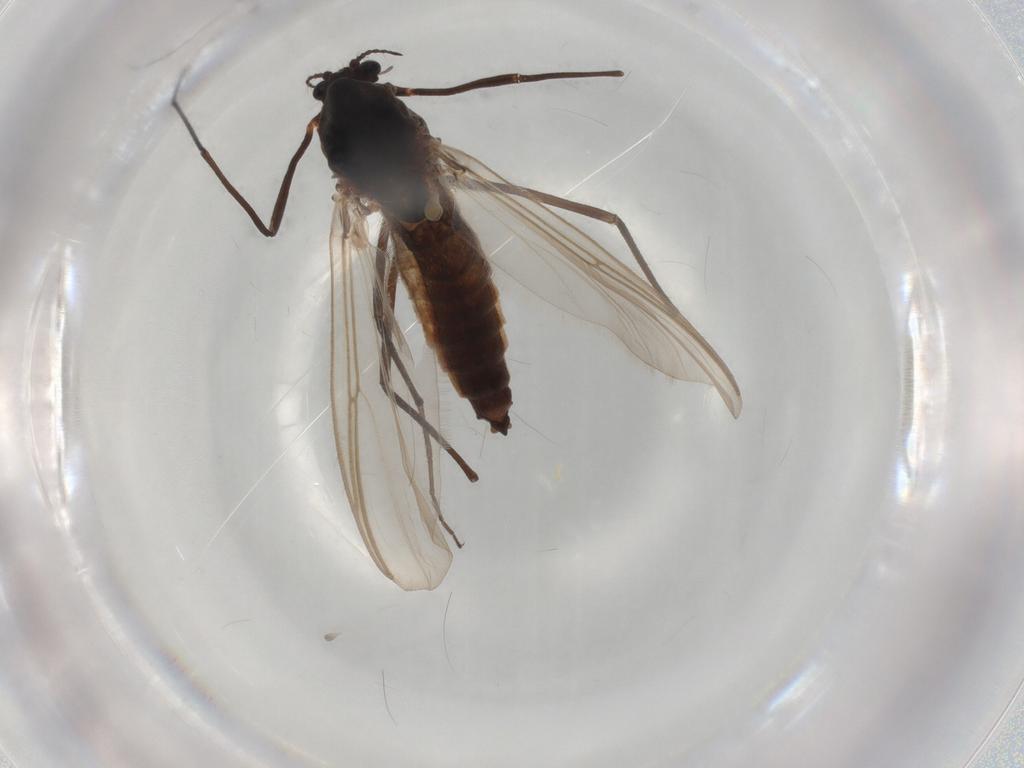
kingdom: Animalia
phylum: Arthropoda
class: Insecta
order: Diptera
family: Chironomidae
